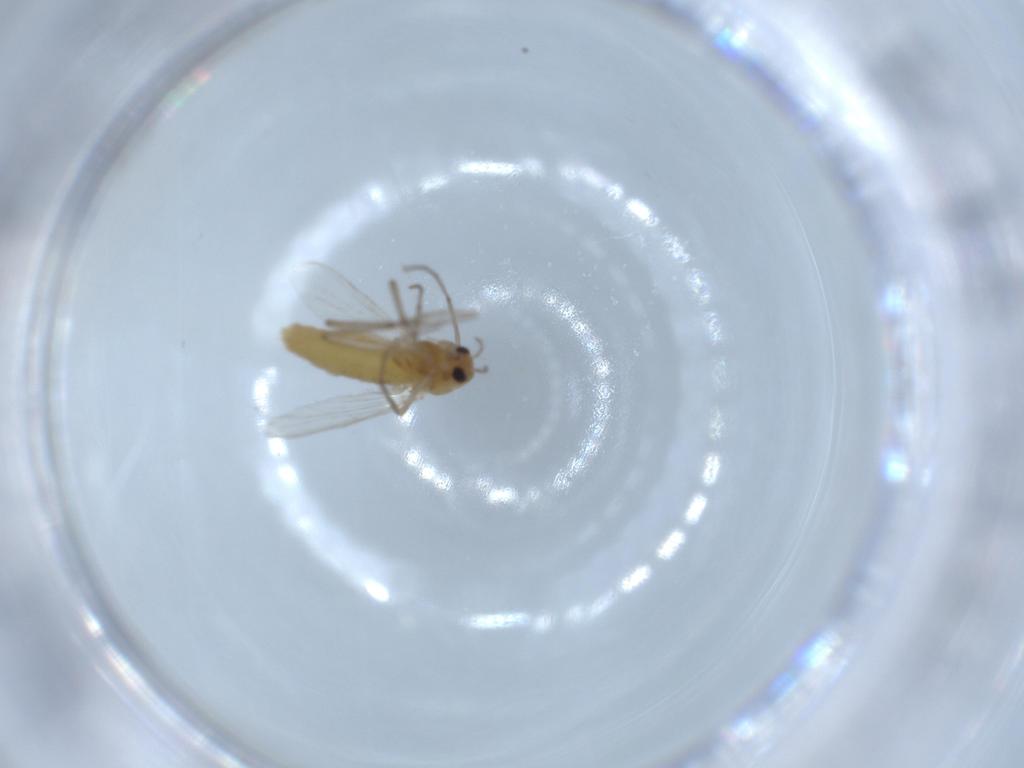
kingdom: Animalia
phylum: Arthropoda
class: Insecta
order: Diptera
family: Chironomidae
